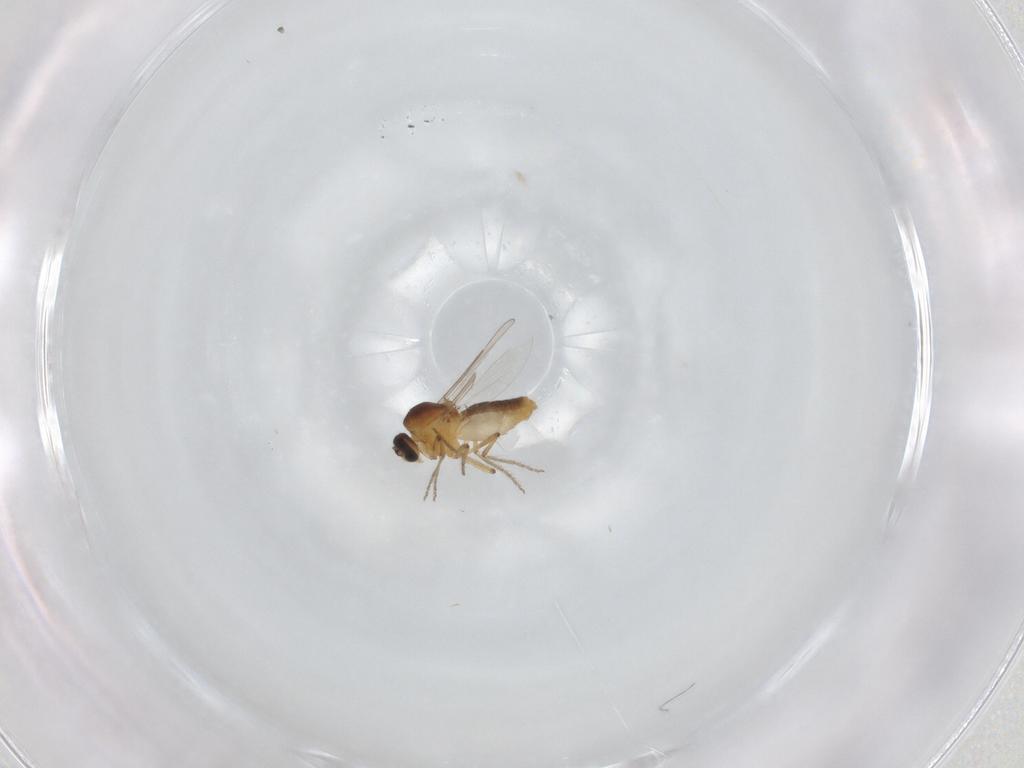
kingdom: Animalia
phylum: Arthropoda
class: Insecta
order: Diptera
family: Ceratopogonidae
